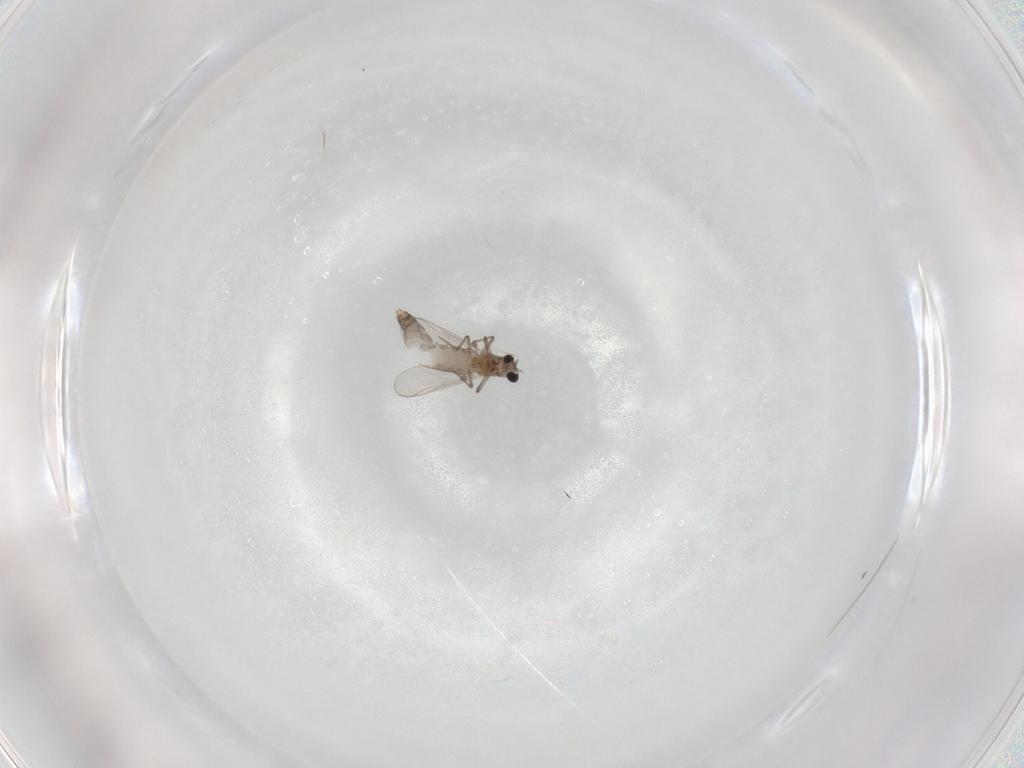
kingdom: Animalia
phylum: Arthropoda
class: Insecta
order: Diptera
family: Chironomidae
